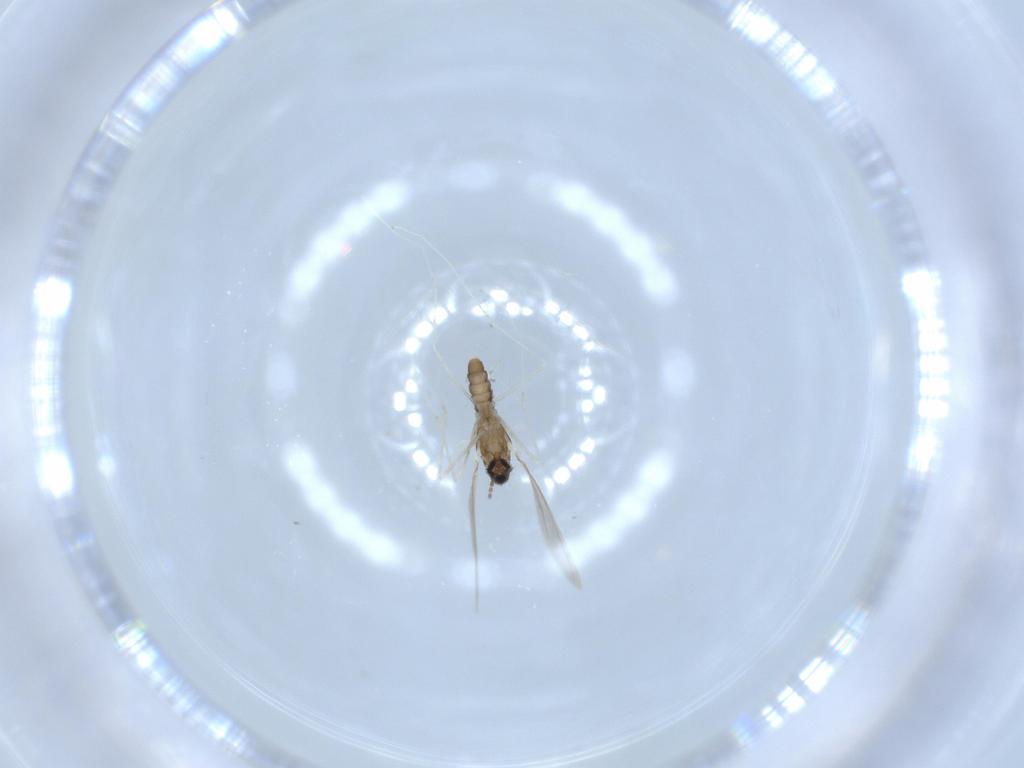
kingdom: Animalia
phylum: Arthropoda
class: Insecta
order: Diptera
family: Cecidomyiidae
